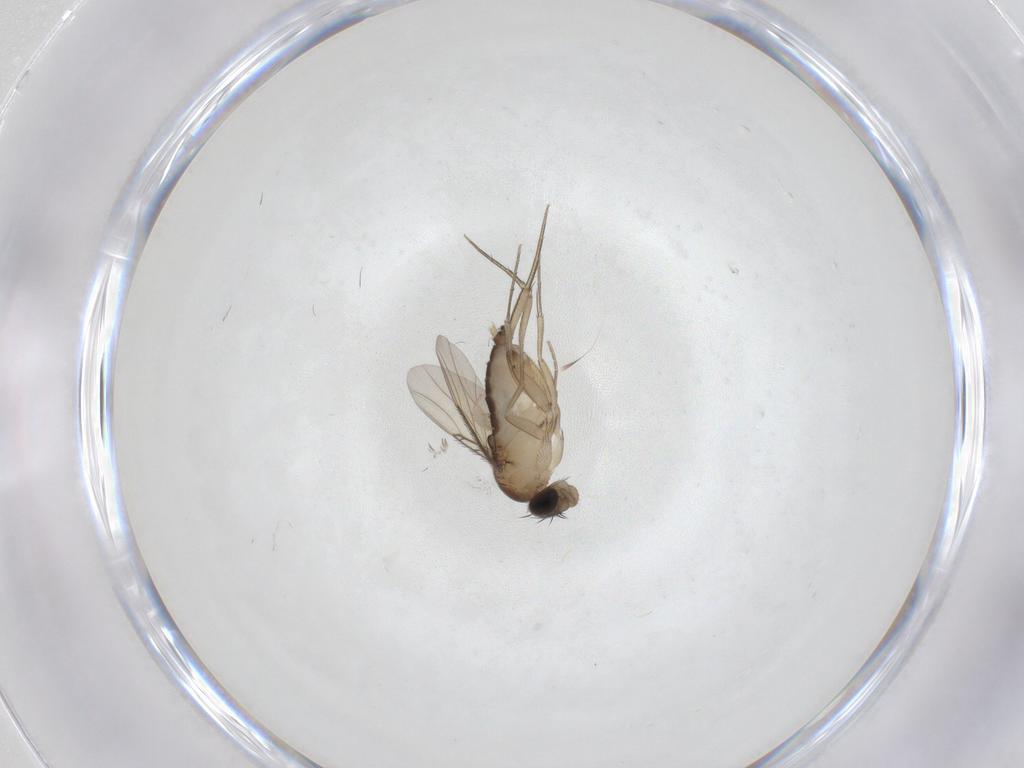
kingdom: Animalia
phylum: Arthropoda
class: Insecta
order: Diptera
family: Phoridae
